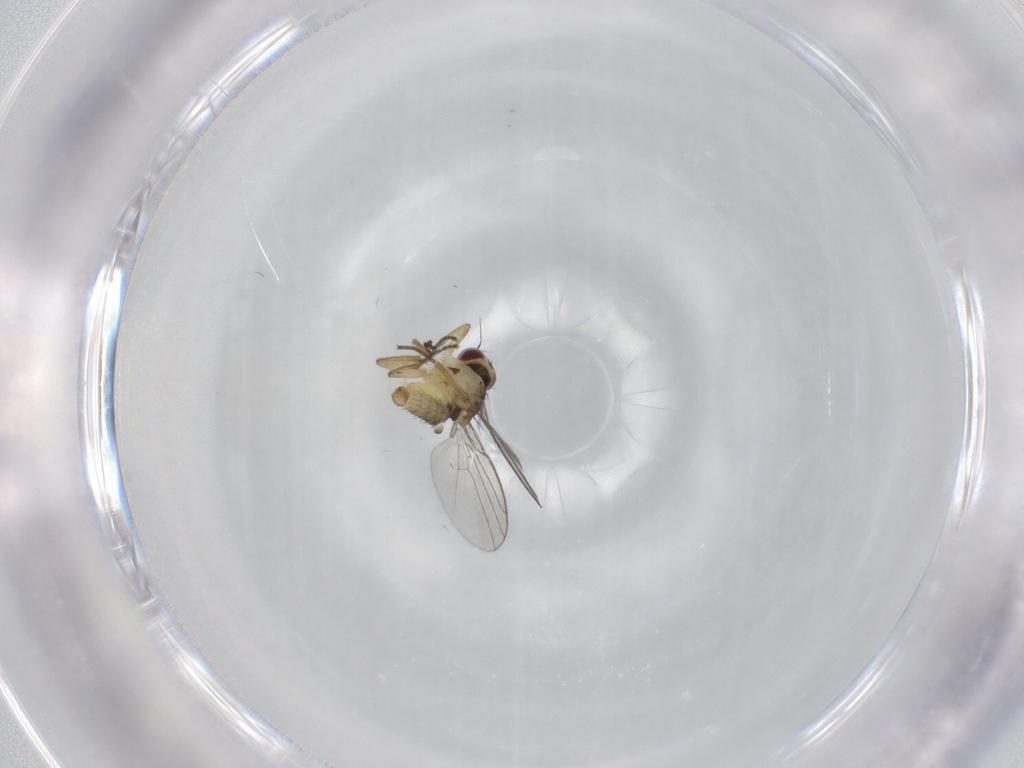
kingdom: Animalia
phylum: Arthropoda
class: Insecta
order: Diptera
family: Agromyzidae
